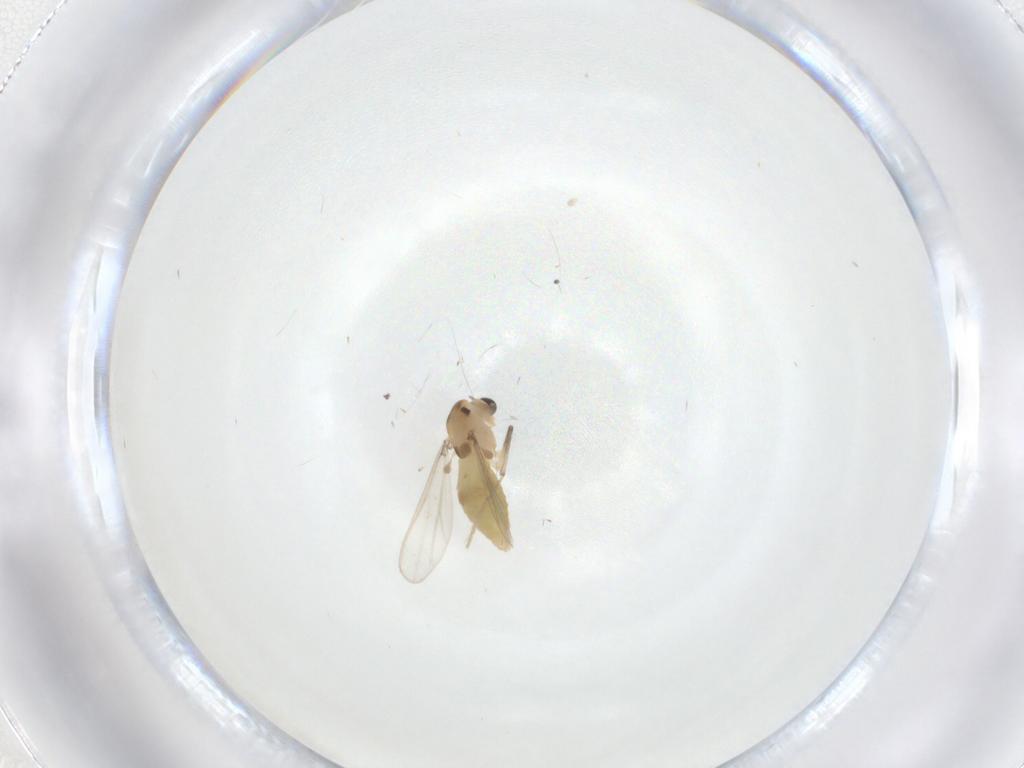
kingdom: Animalia
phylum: Arthropoda
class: Insecta
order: Diptera
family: Chironomidae
